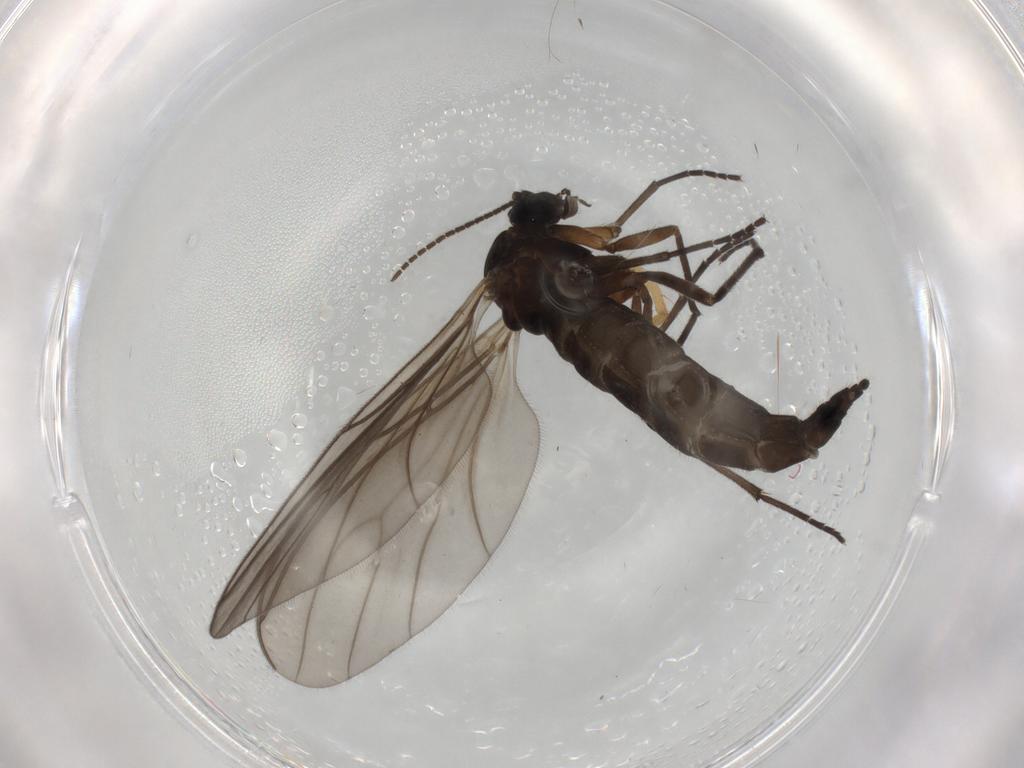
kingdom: Animalia
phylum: Arthropoda
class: Insecta
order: Diptera
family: Sciaridae
